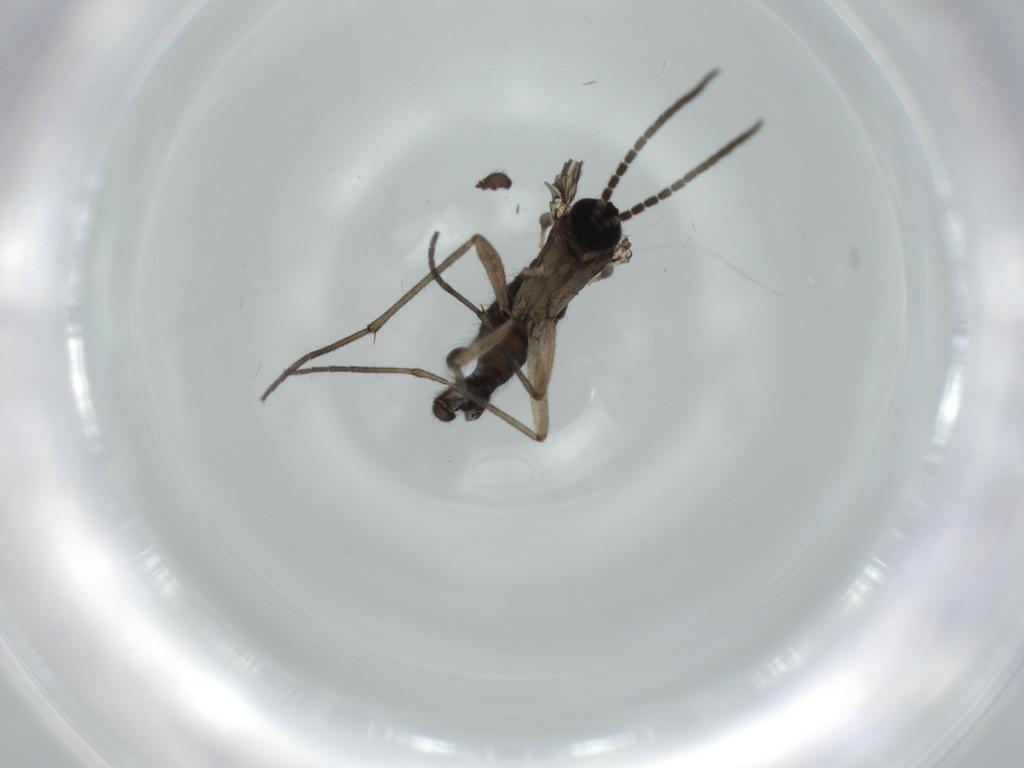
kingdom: Animalia
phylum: Arthropoda
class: Insecta
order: Diptera
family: Sciaridae
